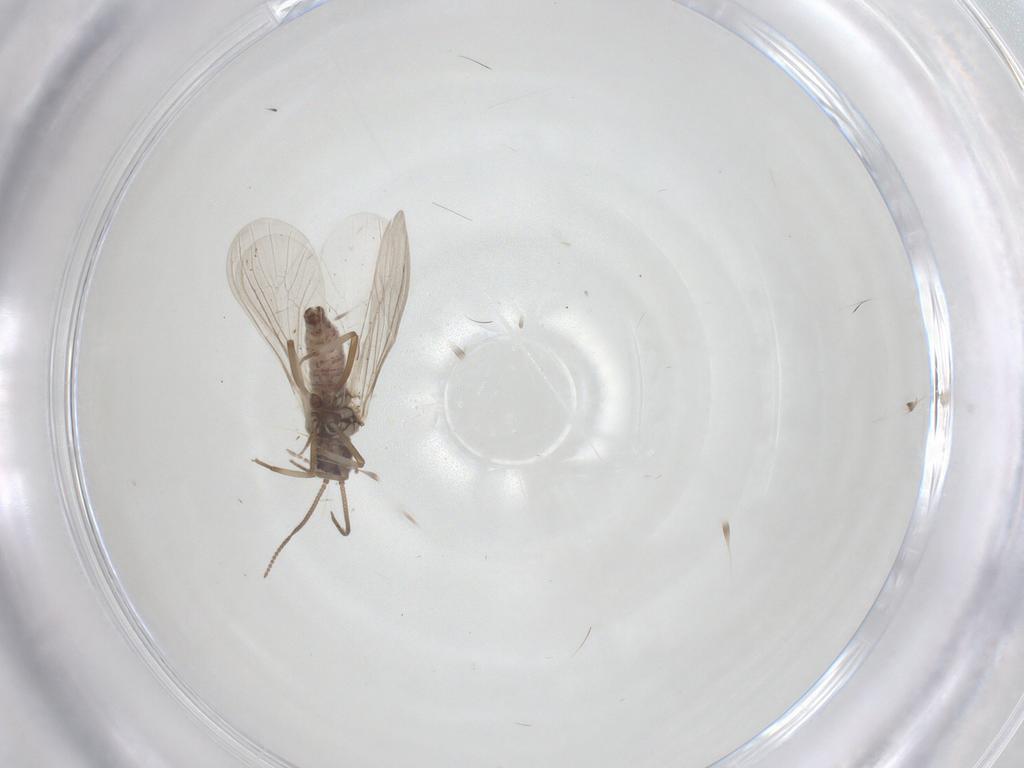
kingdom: Animalia
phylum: Arthropoda
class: Insecta
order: Neuroptera
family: Coniopterygidae
